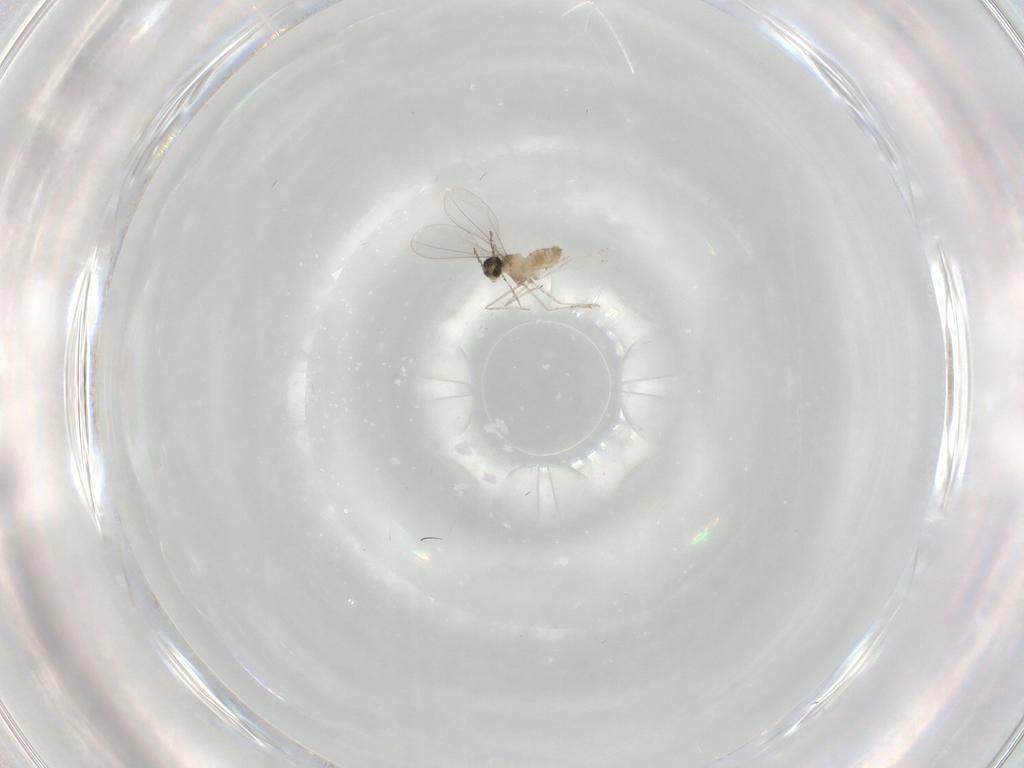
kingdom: Animalia
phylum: Arthropoda
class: Insecta
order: Diptera
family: Cecidomyiidae
